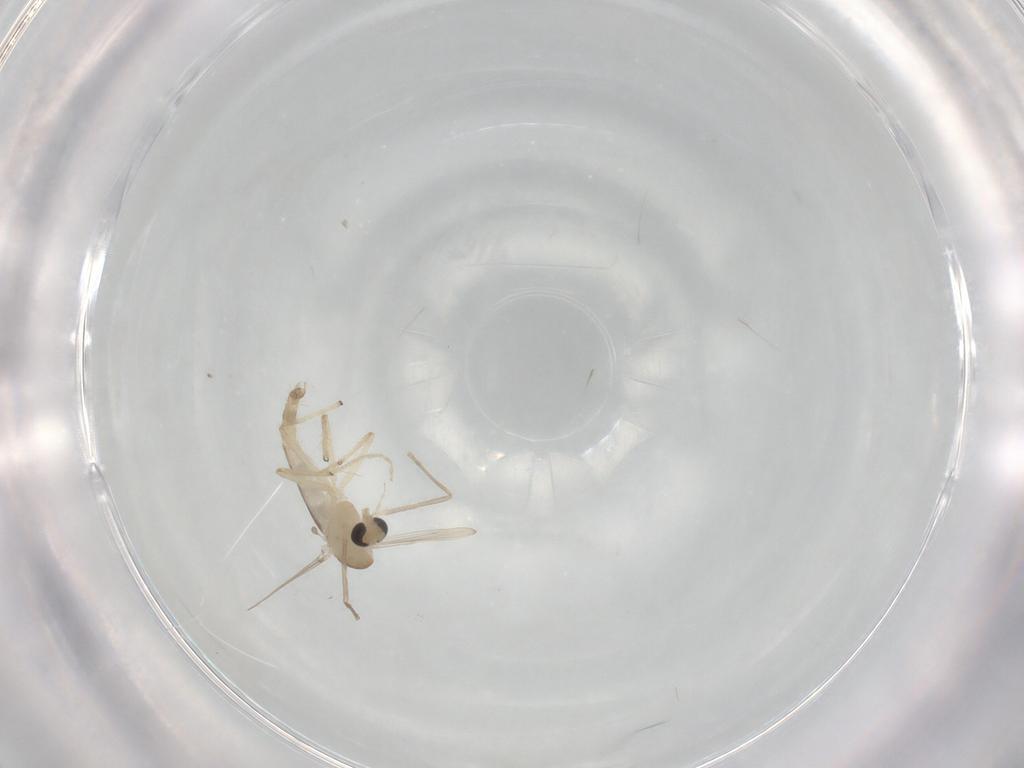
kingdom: Animalia
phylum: Arthropoda
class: Insecta
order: Diptera
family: Chironomidae
